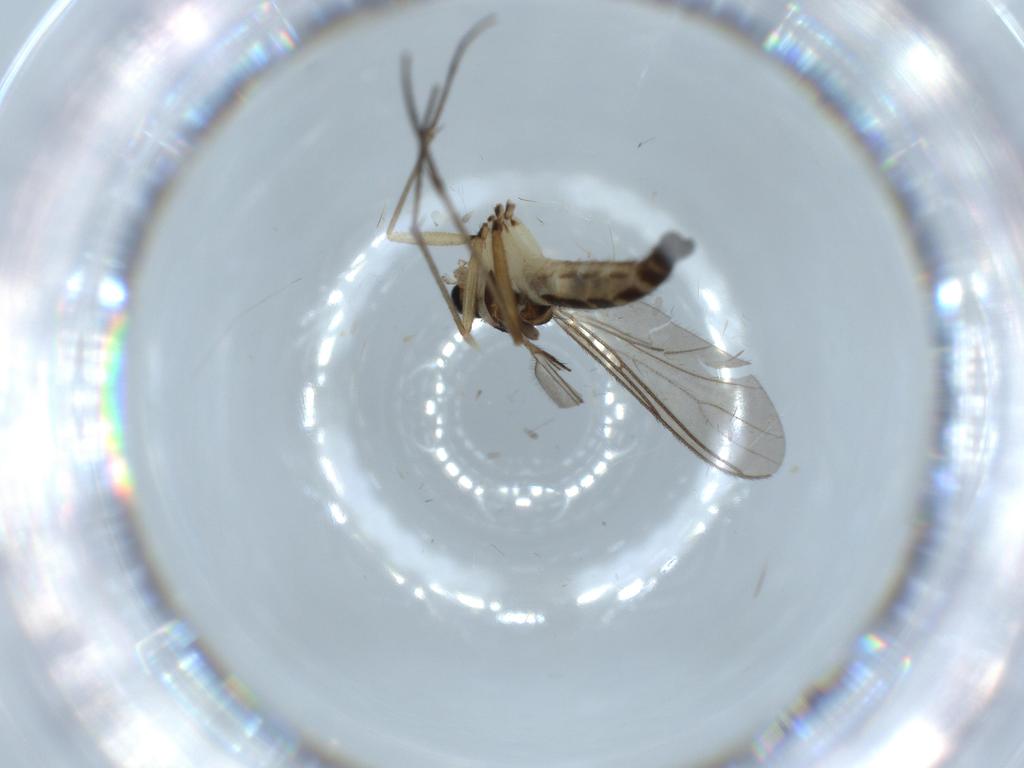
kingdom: Animalia
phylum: Arthropoda
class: Insecta
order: Diptera
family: Sciaridae
